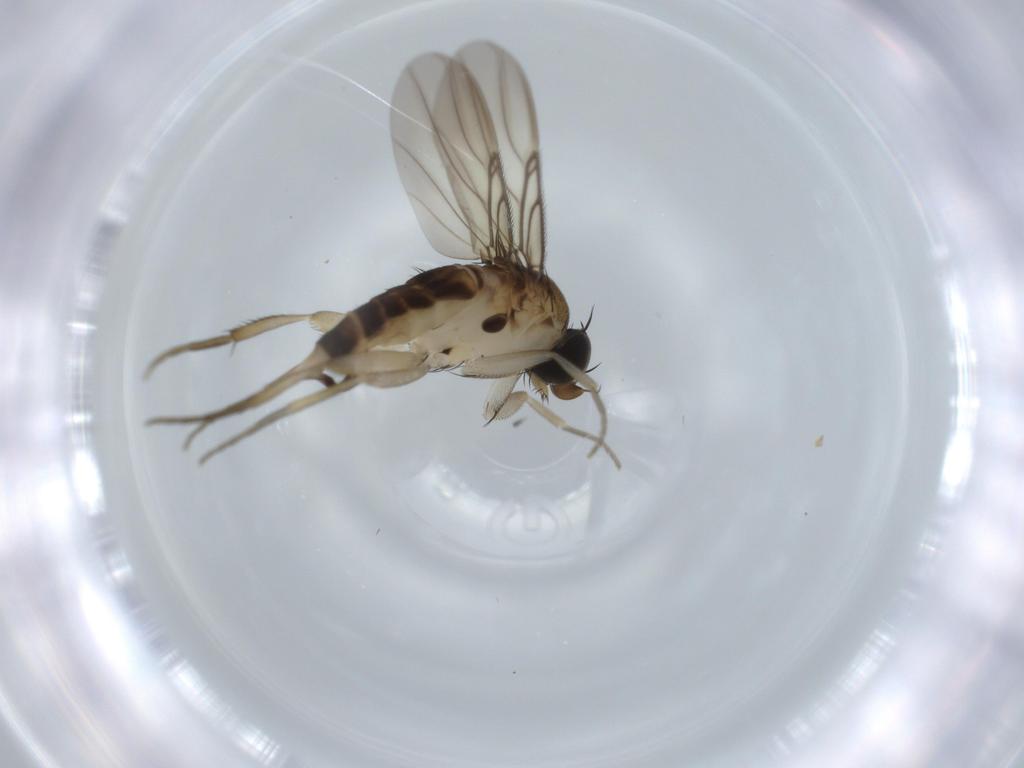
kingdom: Animalia
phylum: Arthropoda
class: Insecta
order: Diptera
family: Phoridae
